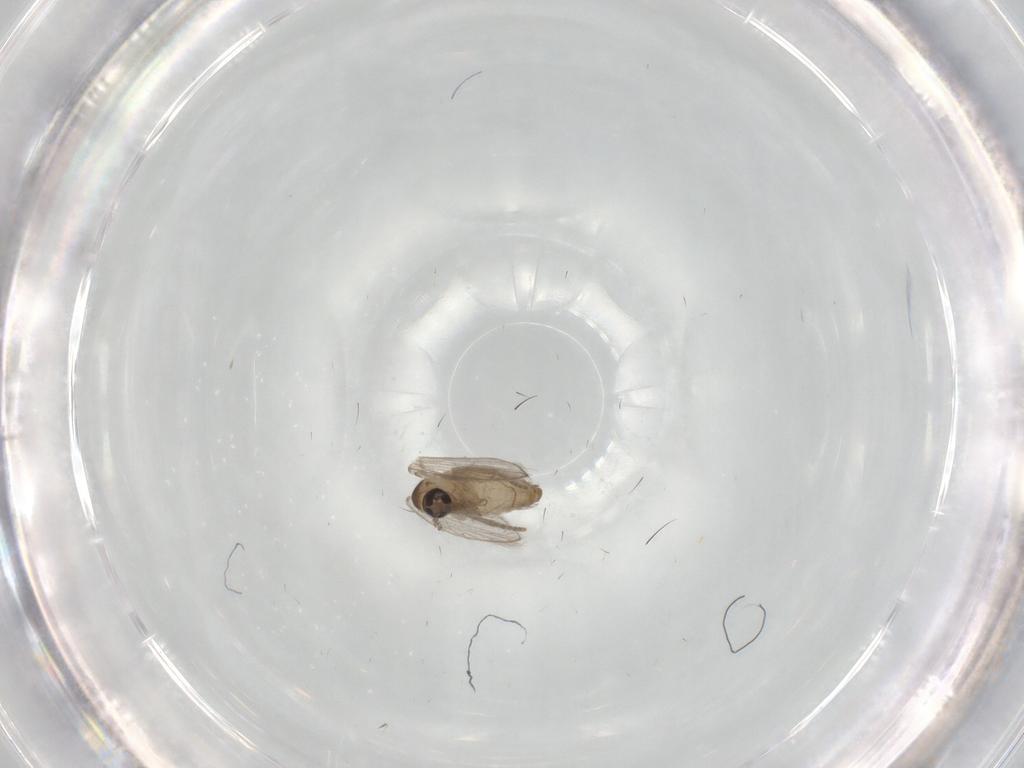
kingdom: Animalia
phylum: Arthropoda
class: Insecta
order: Diptera
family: Psychodidae
